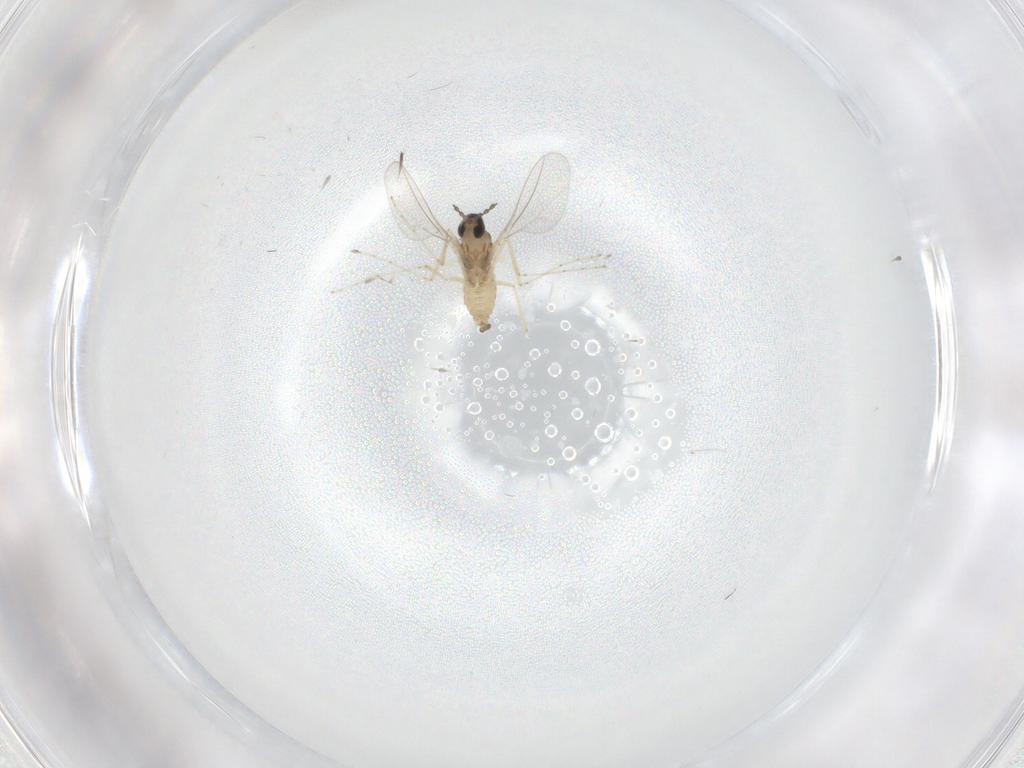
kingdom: Animalia
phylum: Arthropoda
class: Insecta
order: Diptera
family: Cecidomyiidae
